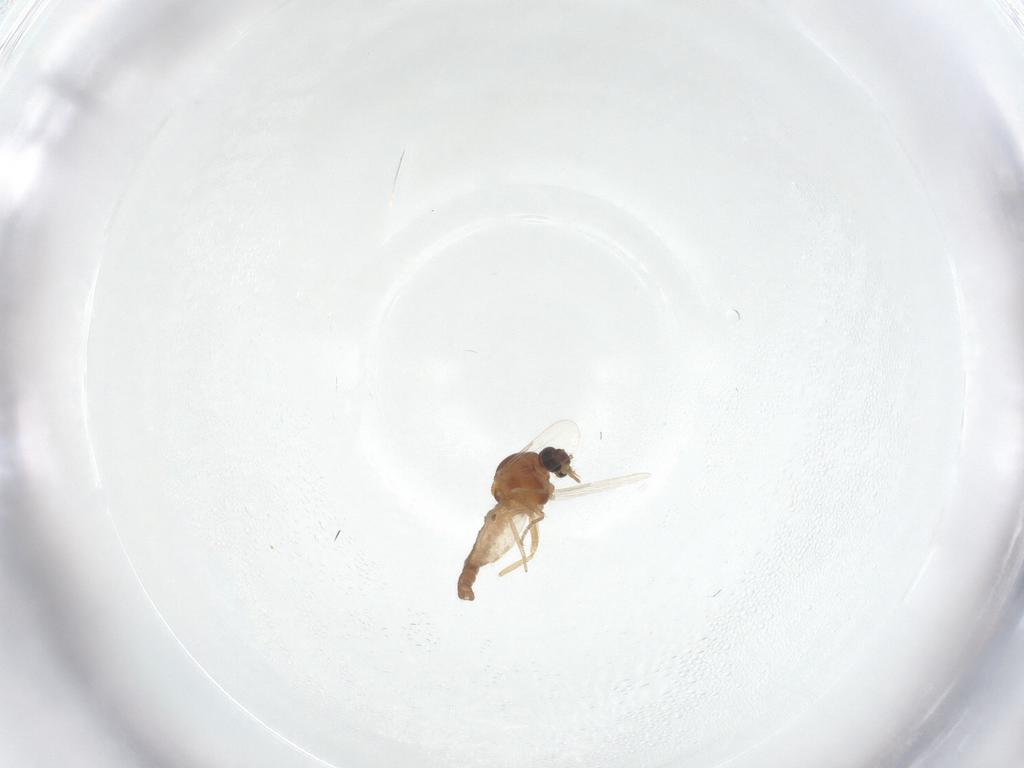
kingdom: Animalia
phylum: Arthropoda
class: Insecta
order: Diptera
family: Ceratopogonidae
